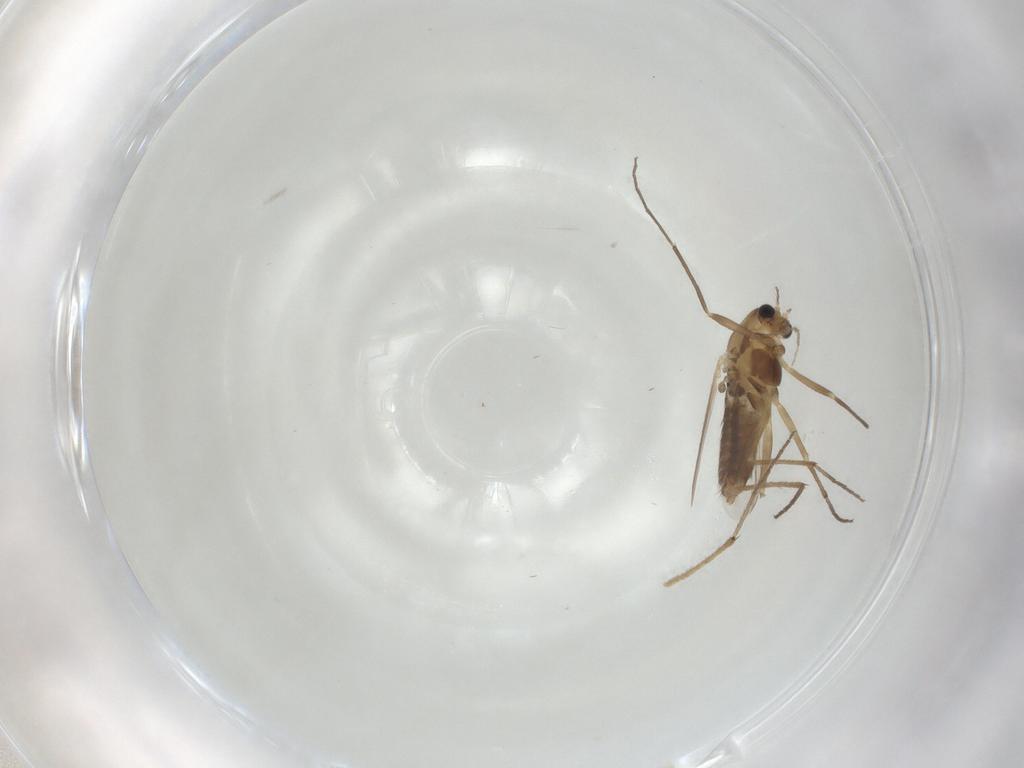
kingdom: Animalia
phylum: Arthropoda
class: Insecta
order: Diptera
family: Chironomidae
